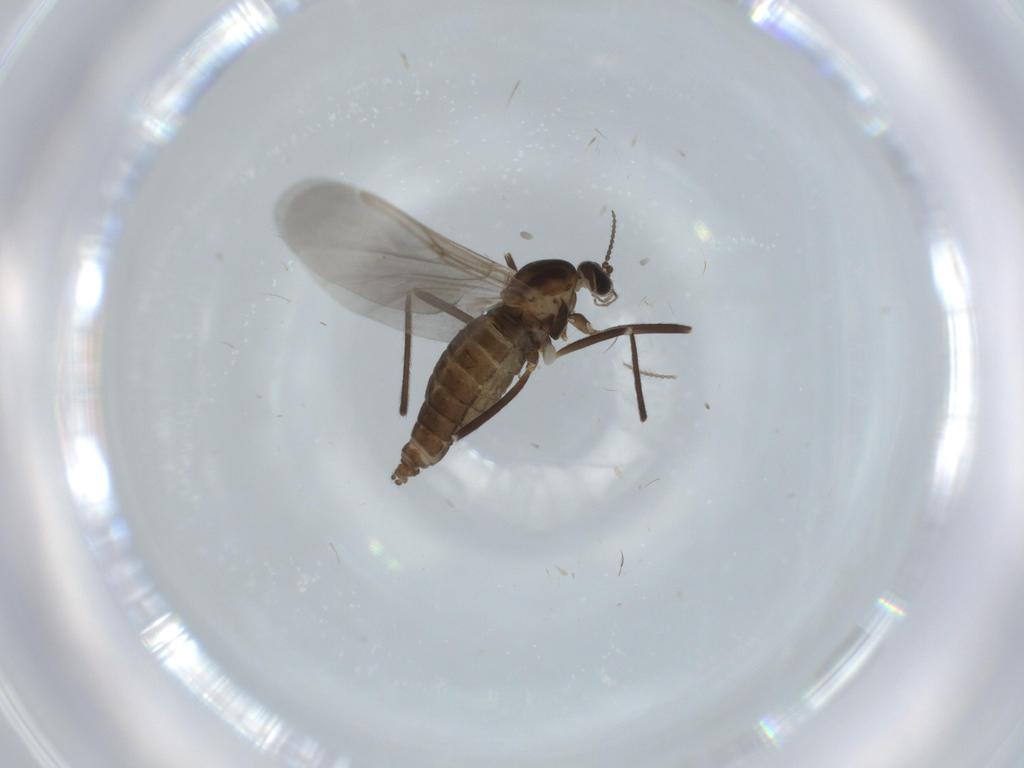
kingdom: Animalia
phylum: Arthropoda
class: Insecta
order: Diptera
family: Cecidomyiidae
